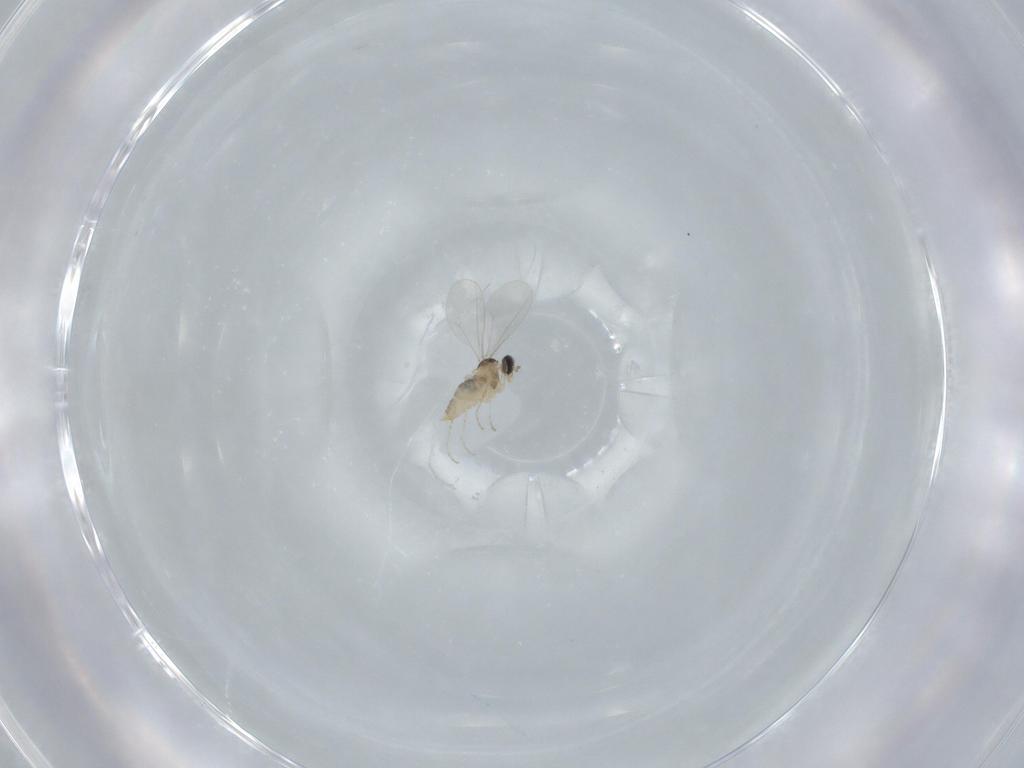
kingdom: Animalia
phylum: Arthropoda
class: Insecta
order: Diptera
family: Cecidomyiidae
